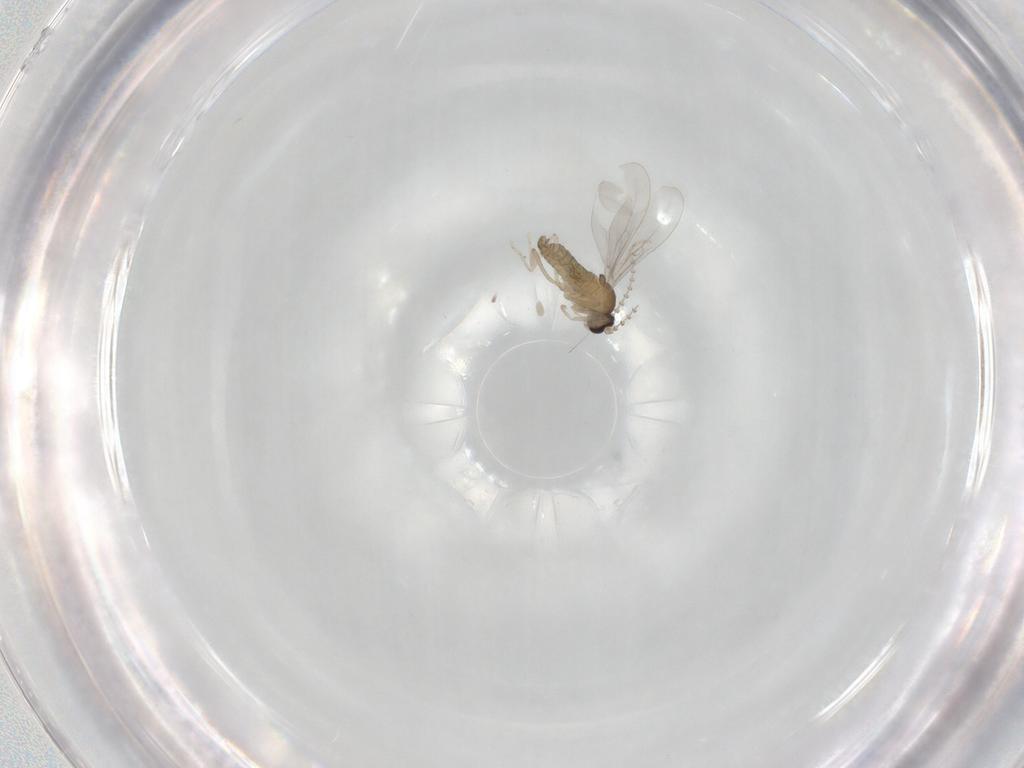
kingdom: Animalia
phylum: Arthropoda
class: Insecta
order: Diptera
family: Cecidomyiidae
